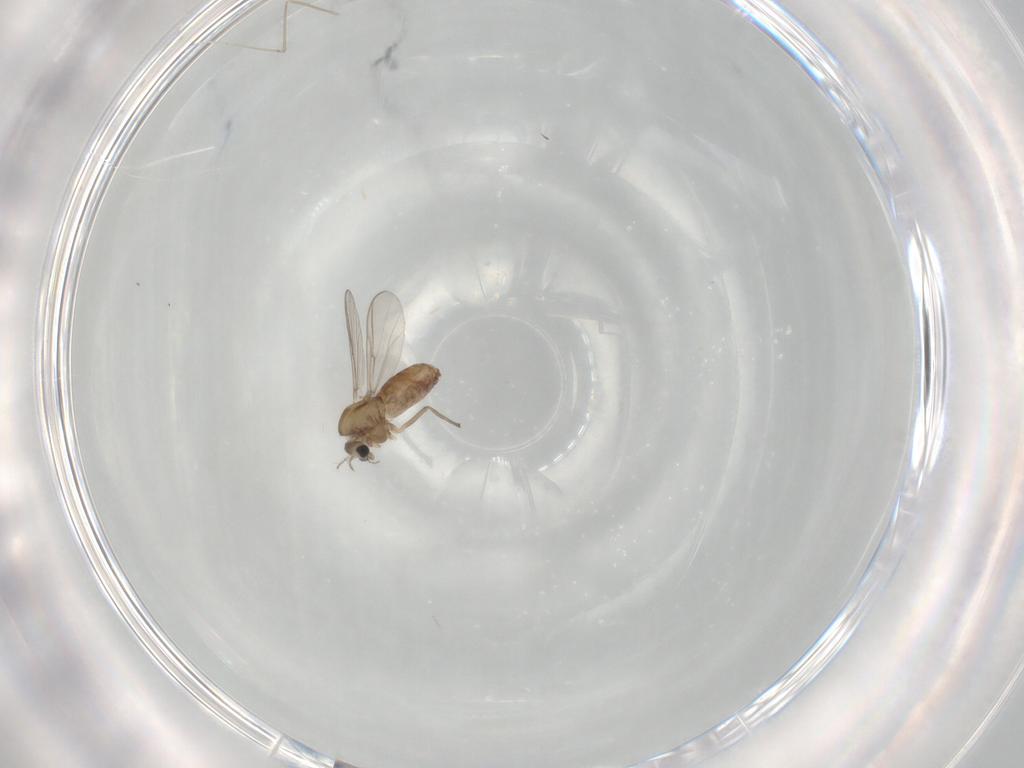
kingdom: Animalia
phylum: Arthropoda
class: Insecta
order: Diptera
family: Chironomidae
